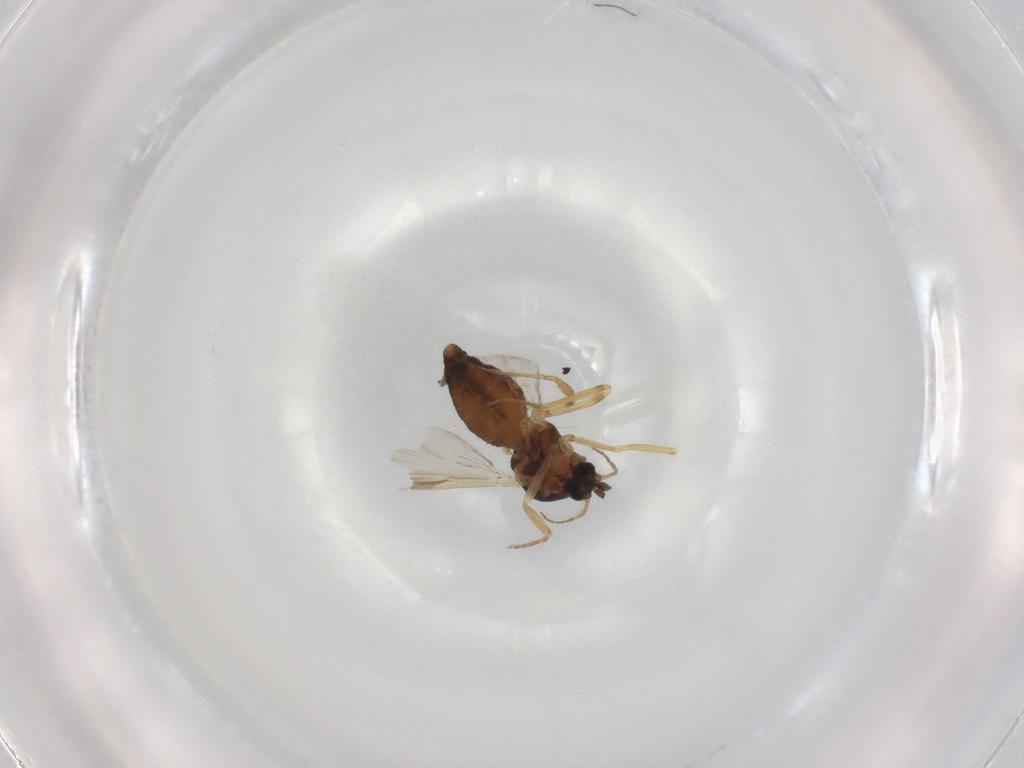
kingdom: Animalia
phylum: Arthropoda
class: Insecta
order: Diptera
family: Ceratopogonidae
